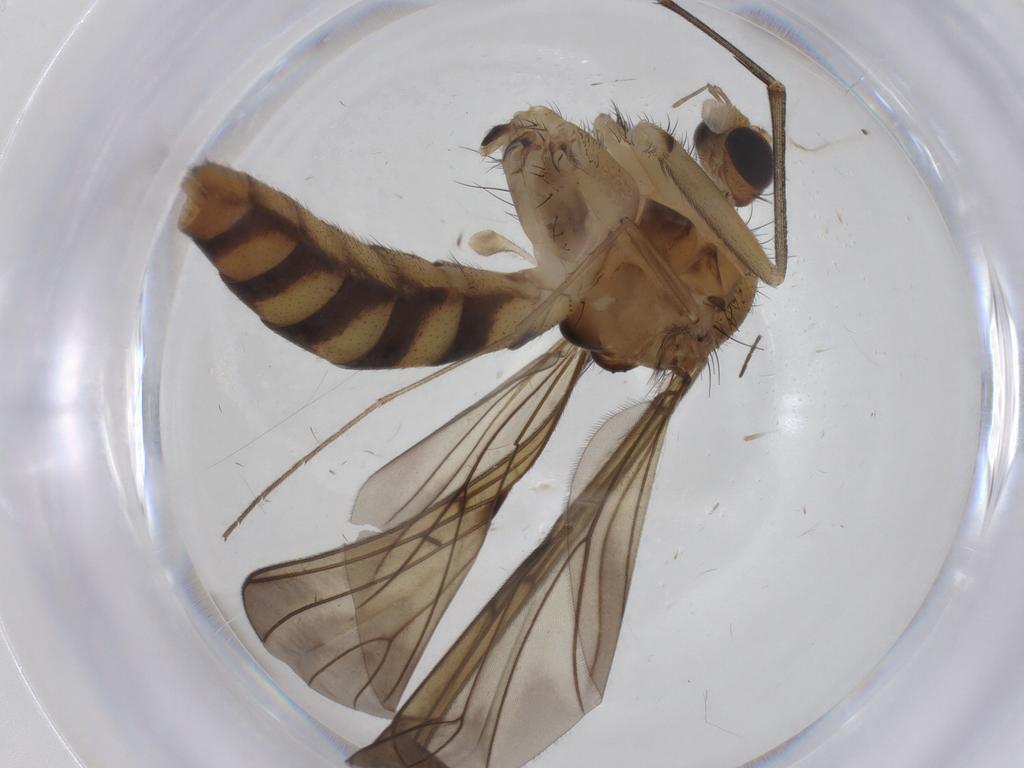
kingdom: Animalia
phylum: Arthropoda
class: Insecta
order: Diptera
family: Mycetophilidae
